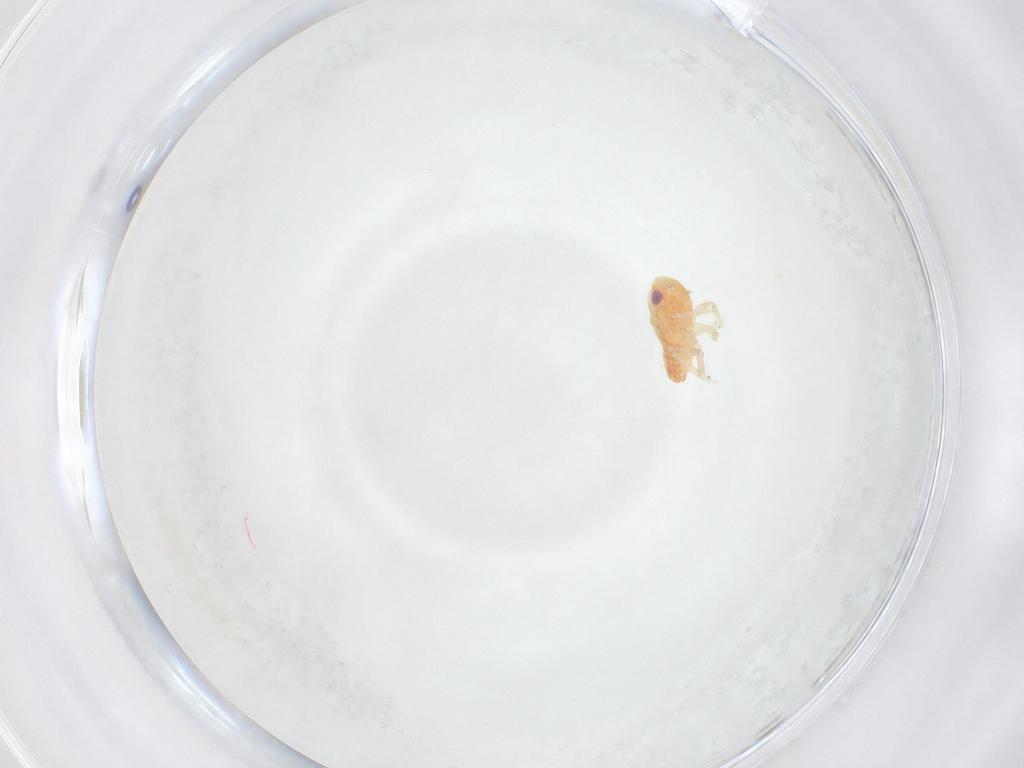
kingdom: Animalia
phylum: Arthropoda
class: Insecta
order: Hemiptera
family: Issidae
